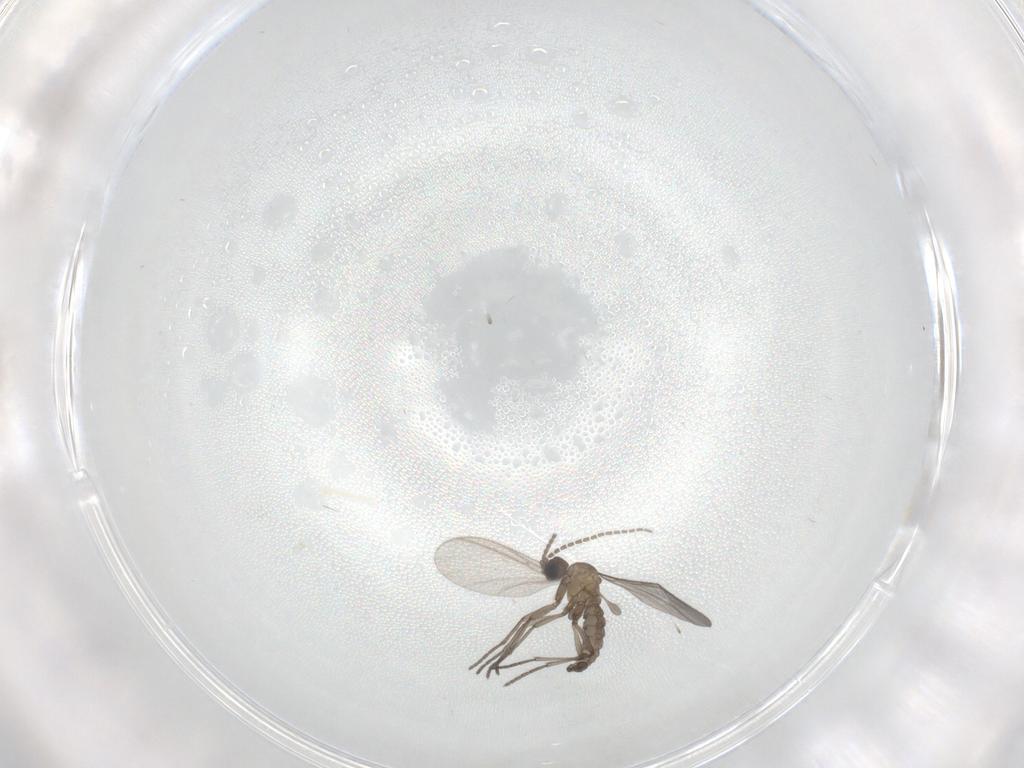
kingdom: Animalia
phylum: Arthropoda
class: Insecta
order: Diptera
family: Sciaridae
